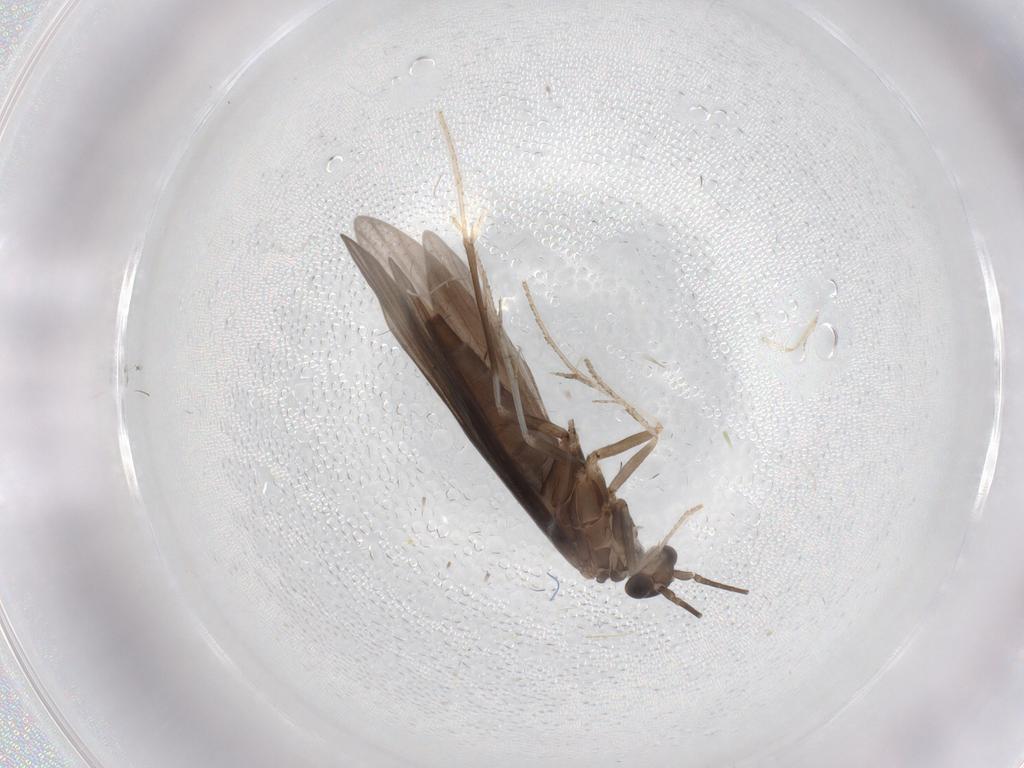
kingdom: Animalia
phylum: Arthropoda
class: Insecta
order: Trichoptera
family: Xiphocentronidae
